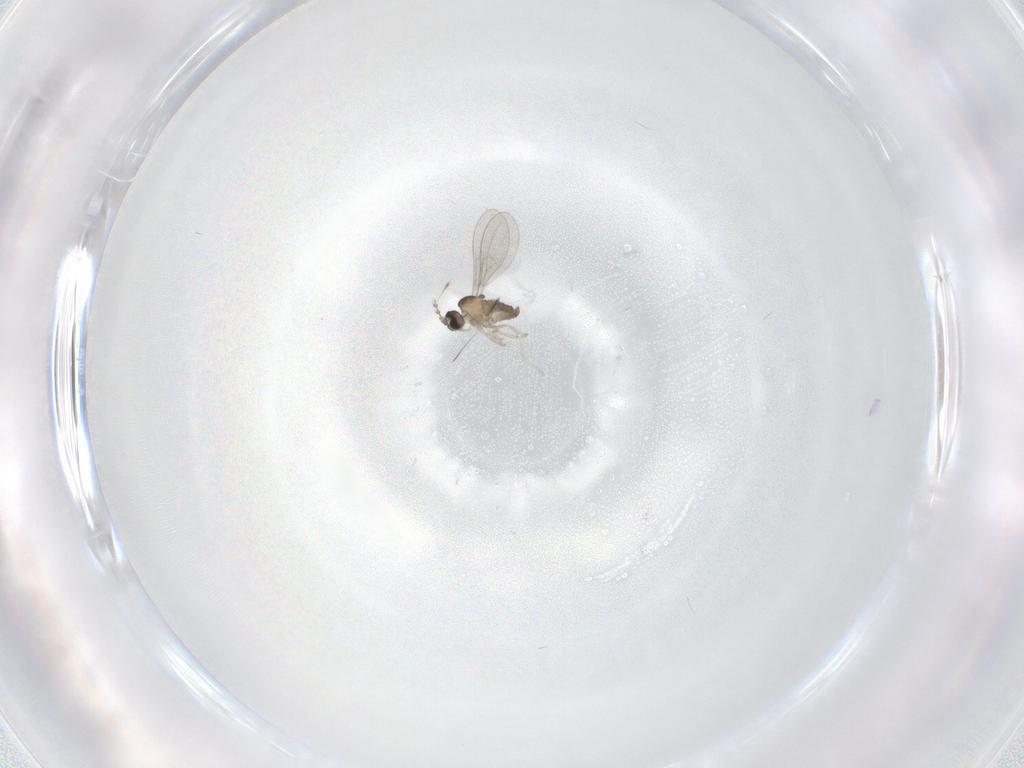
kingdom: Animalia
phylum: Arthropoda
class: Insecta
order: Diptera
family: Cecidomyiidae
